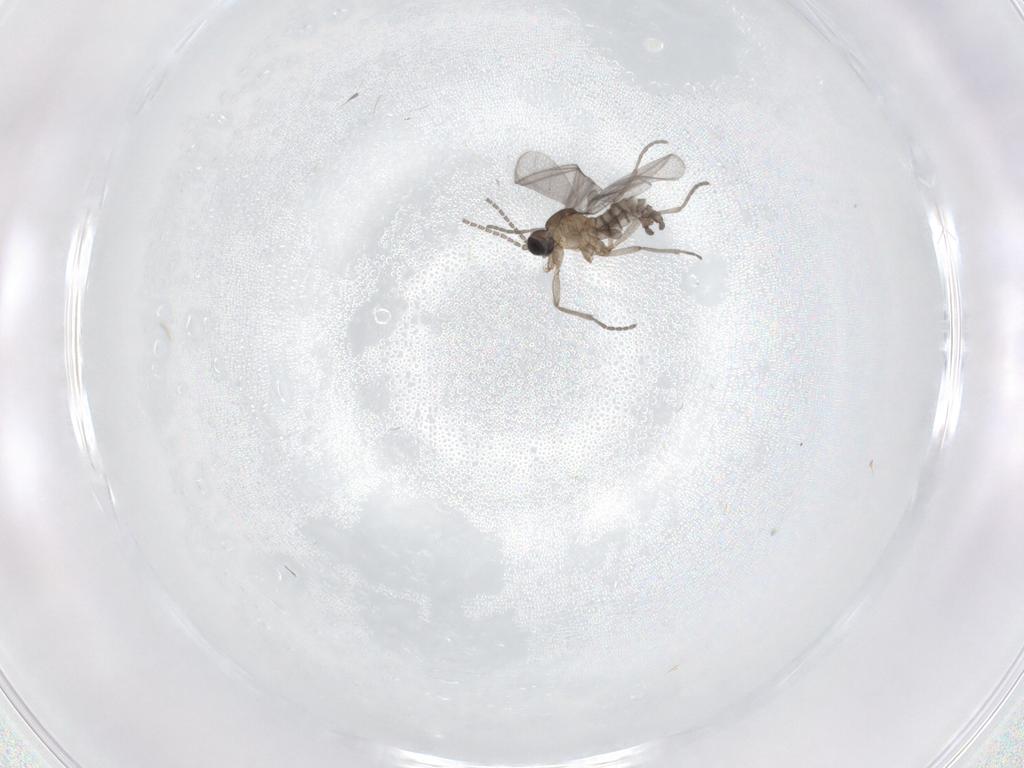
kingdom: Animalia
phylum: Arthropoda
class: Insecta
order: Diptera
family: Sciaridae
